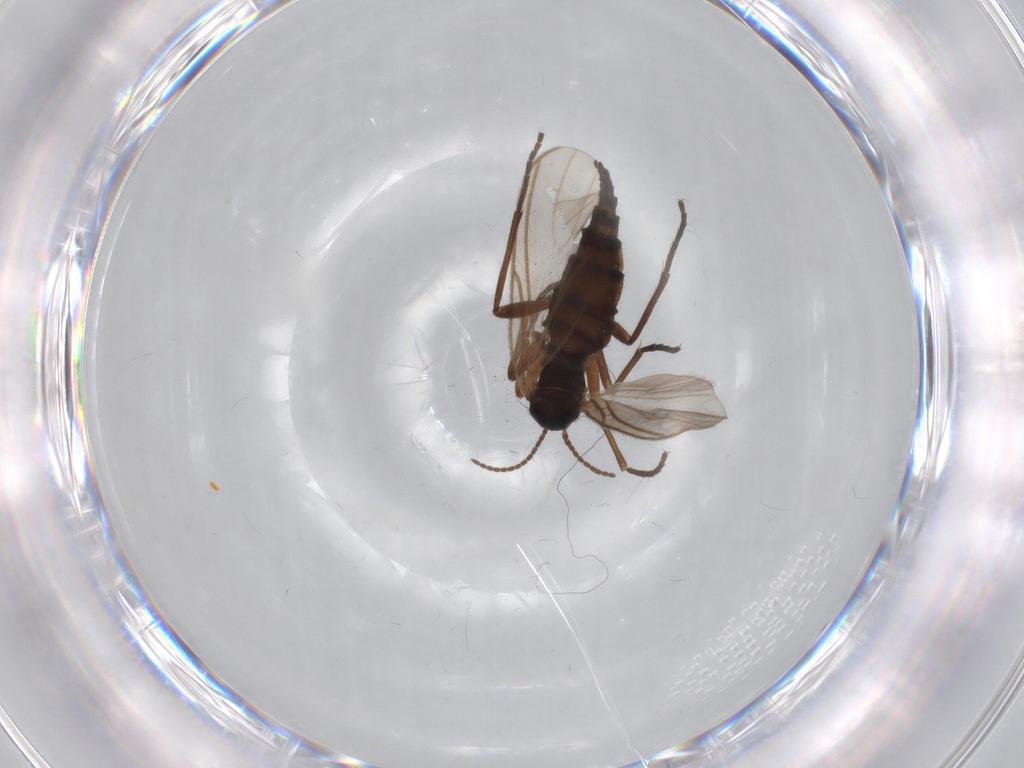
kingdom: Animalia
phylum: Arthropoda
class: Insecta
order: Diptera
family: Sciaridae
